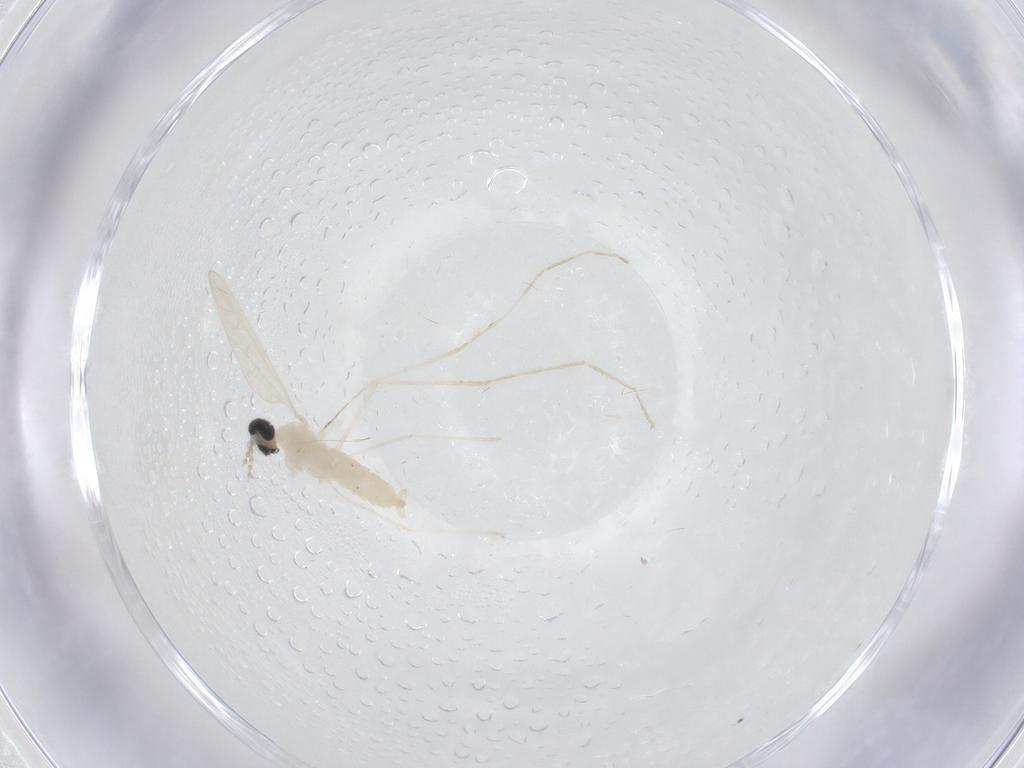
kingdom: Animalia
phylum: Arthropoda
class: Insecta
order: Diptera
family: Cecidomyiidae
